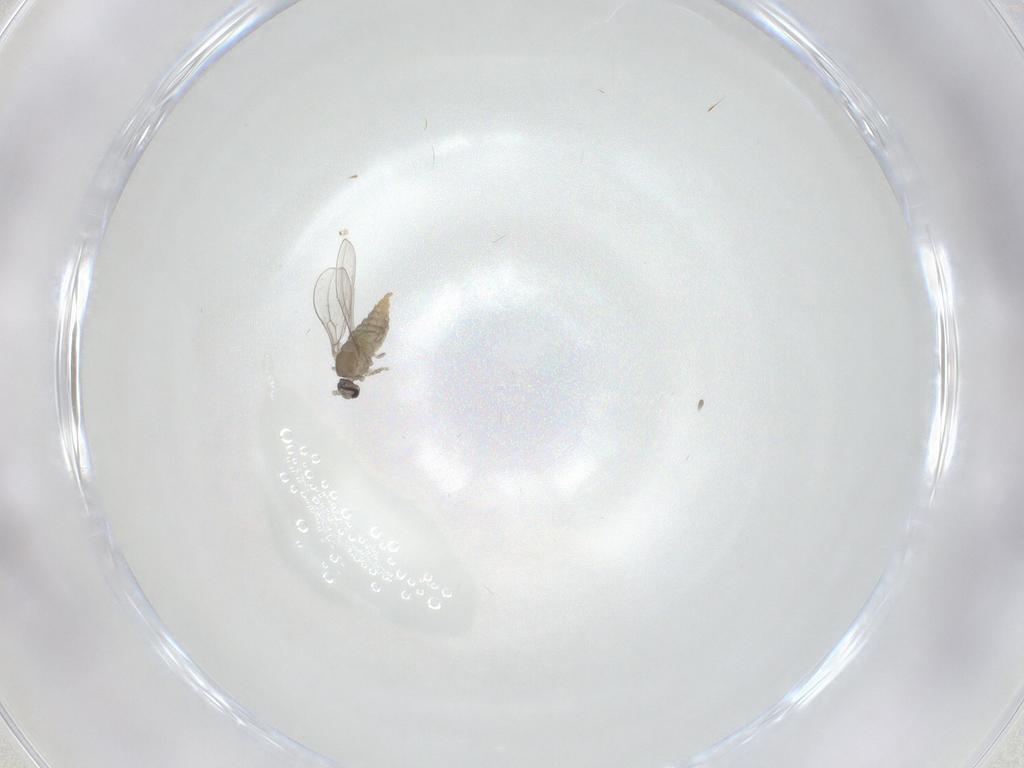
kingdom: Animalia
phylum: Arthropoda
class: Insecta
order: Diptera
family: Cecidomyiidae
